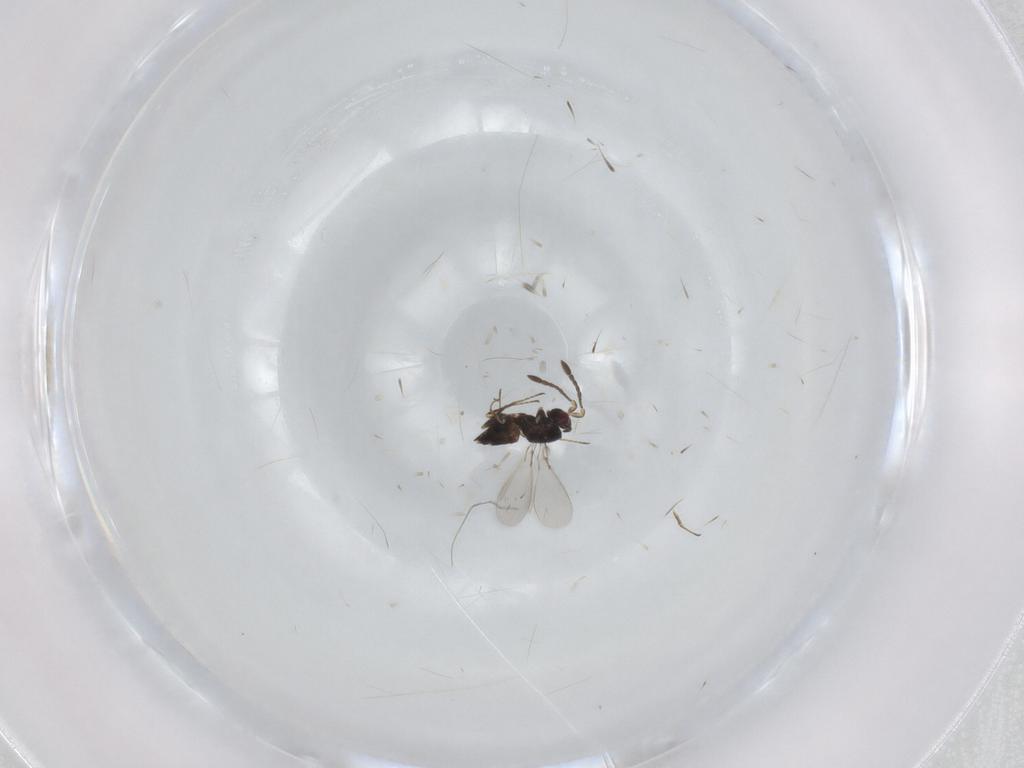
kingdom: Animalia
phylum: Arthropoda
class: Insecta
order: Hymenoptera
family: Mymaridae
